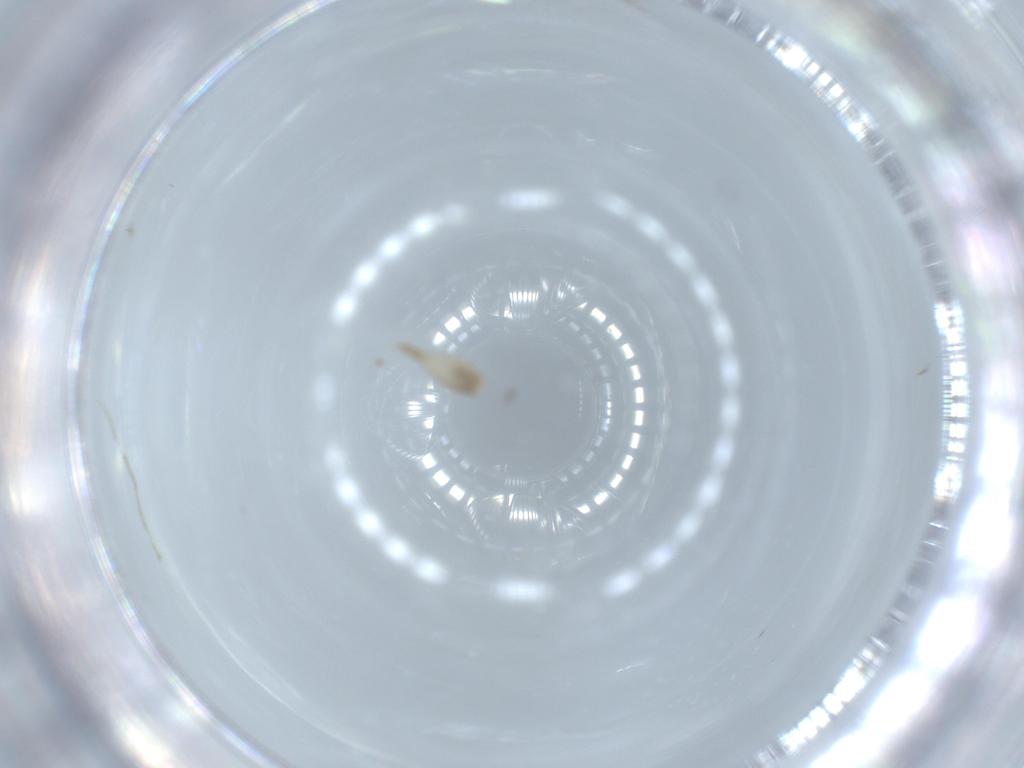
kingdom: Animalia
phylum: Arthropoda
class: Insecta
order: Diptera
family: Cecidomyiidae
